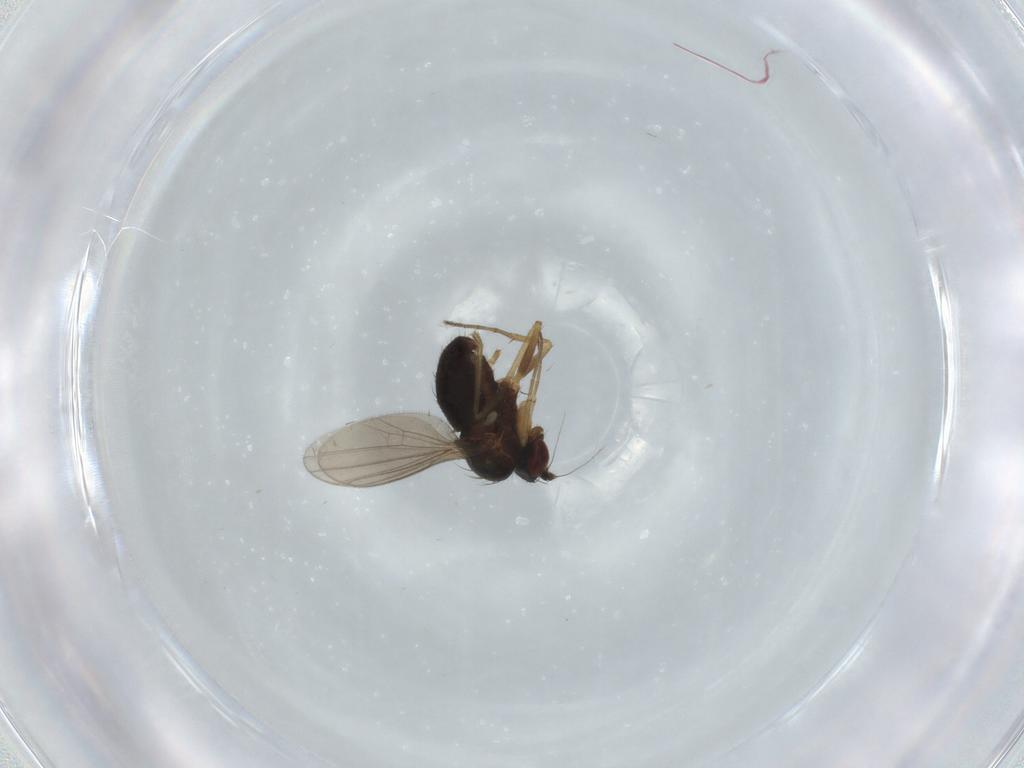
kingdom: Animalia
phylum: Arthropoda
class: Insecta
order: Diptera
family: Dolichopodidae
